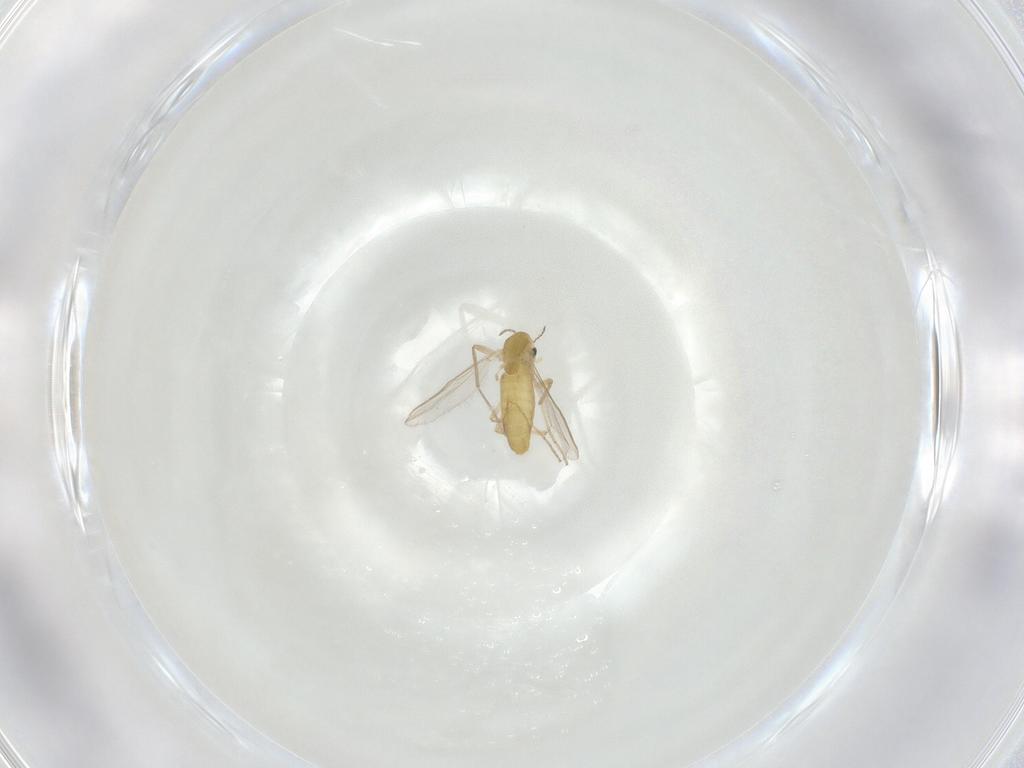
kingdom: Animalia
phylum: Arthropoda
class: Insecta
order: Diptera
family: Chironomidae
